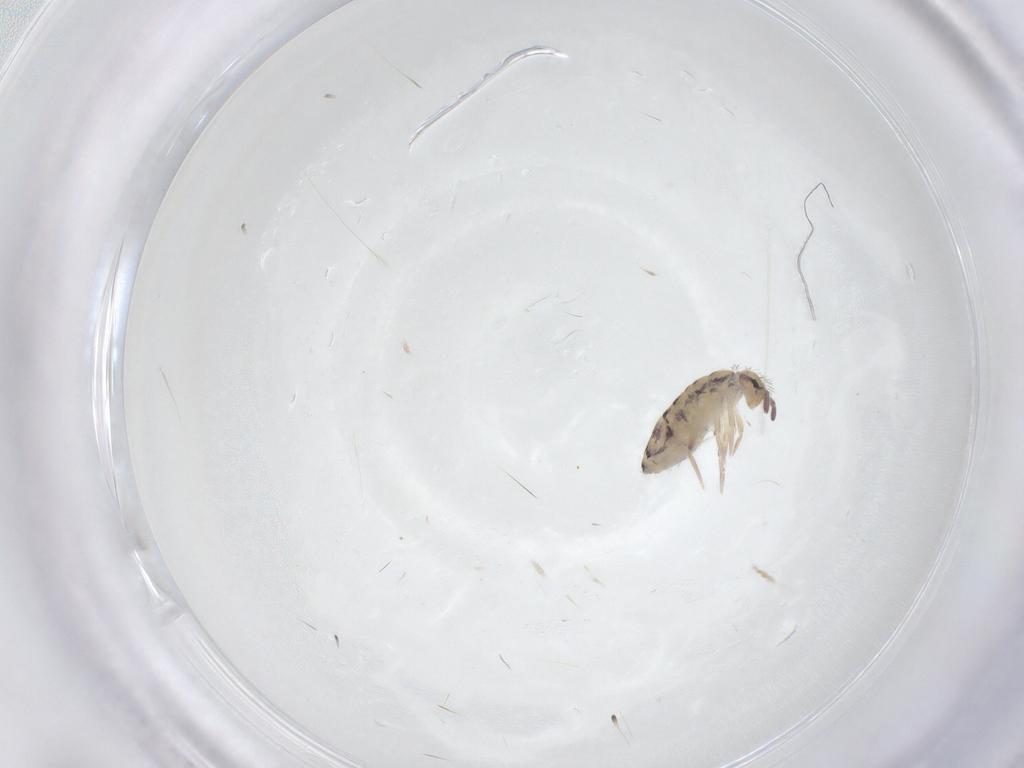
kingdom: Animalia
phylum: Arthropoda
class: Collembola
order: Entomobryomorpha
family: Entomobryidae
